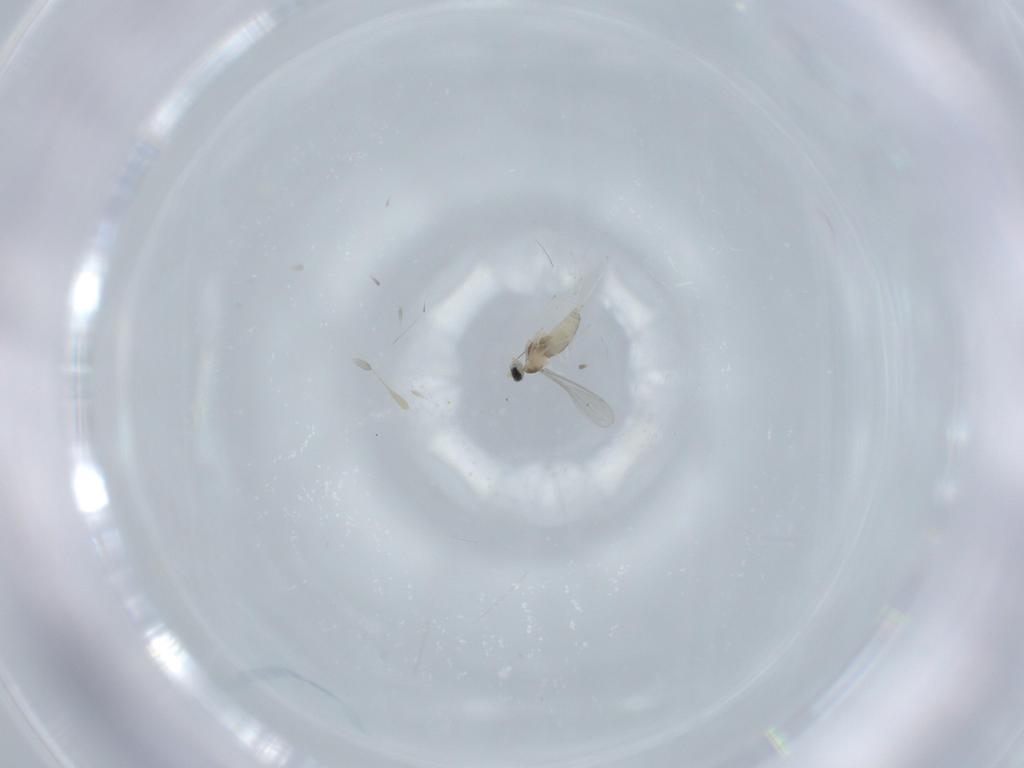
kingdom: Animalia
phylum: Arthropoda
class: Insecta
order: Diptera
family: Cecidomyiidae
